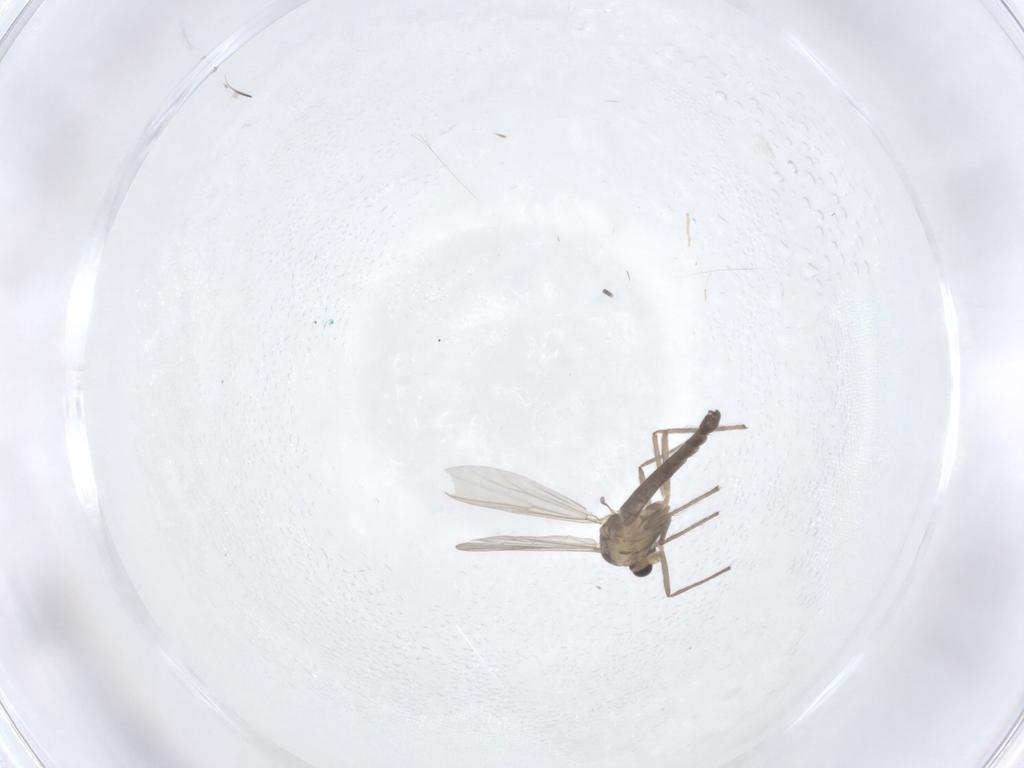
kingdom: Animalia
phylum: Arthropoda
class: Insecta
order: Diptera
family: Chironomidae
